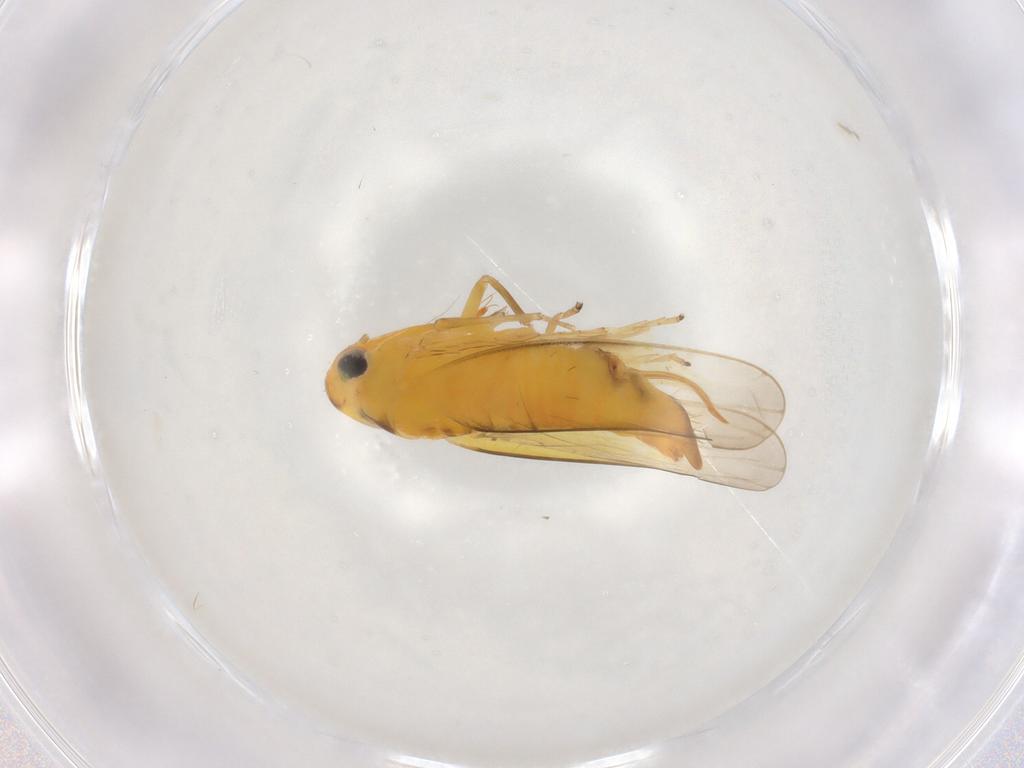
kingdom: Animalia
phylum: Arthropoda
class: Insecta
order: Hemiptera
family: Cicadellidae
